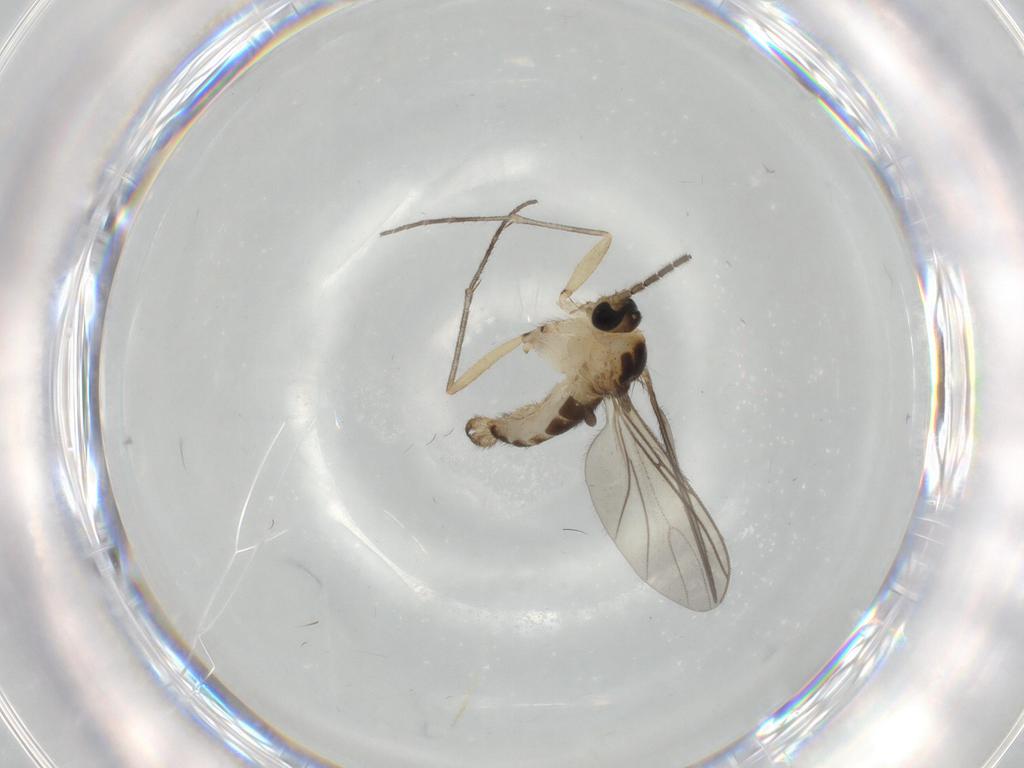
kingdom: Animalia
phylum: Arthropoda
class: Insecta
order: Diptera
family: Sciaridae
